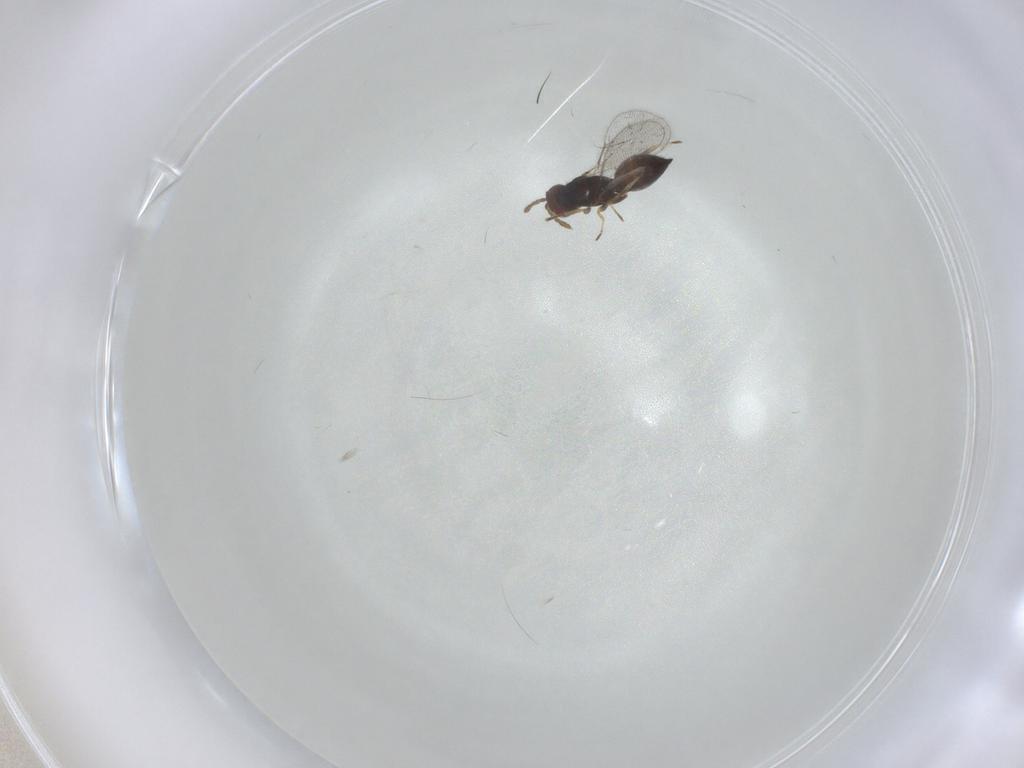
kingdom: Animalia
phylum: Arthropoda
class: Insecta
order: Hymenoptera
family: Eulophidae
